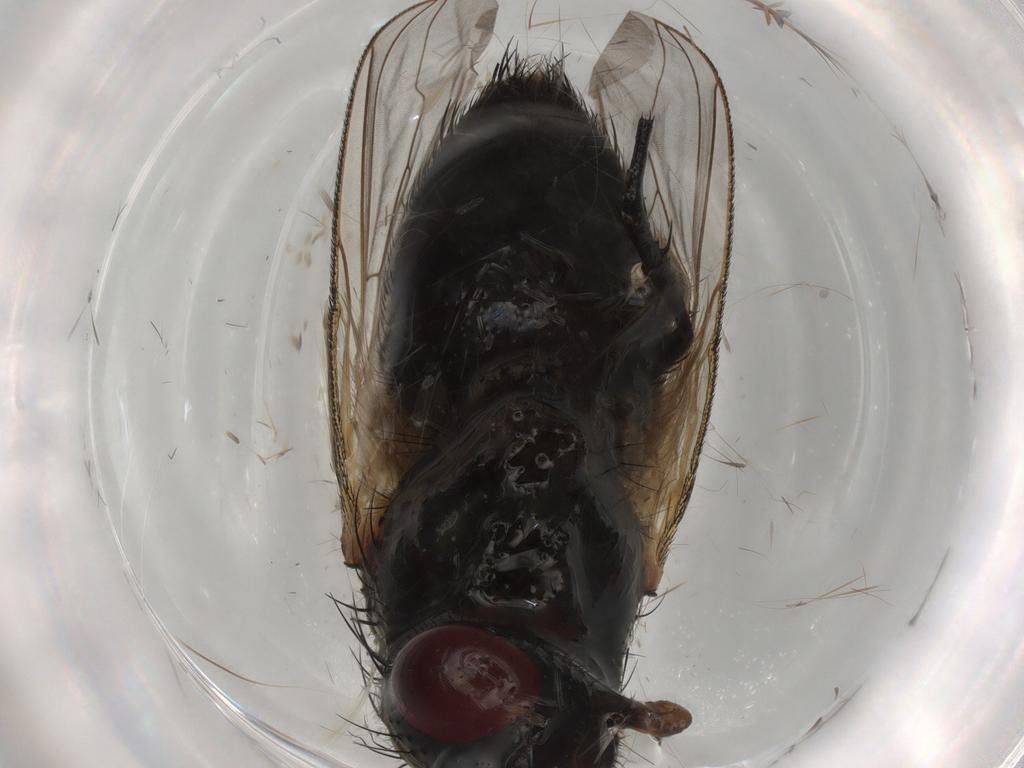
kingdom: Animalia
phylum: Arthropoda
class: Insecta
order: Diptera
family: Sarcophagidae
